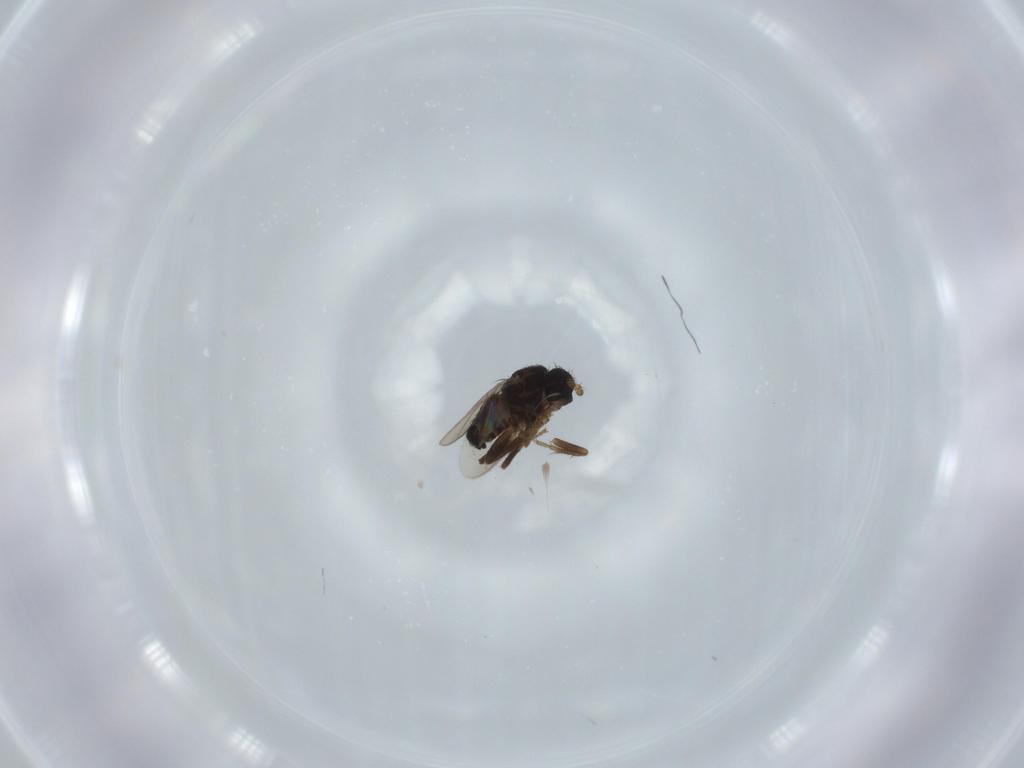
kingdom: Animalia
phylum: Arthropoda
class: Insecta
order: Diptera
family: Sphaeroceridae
